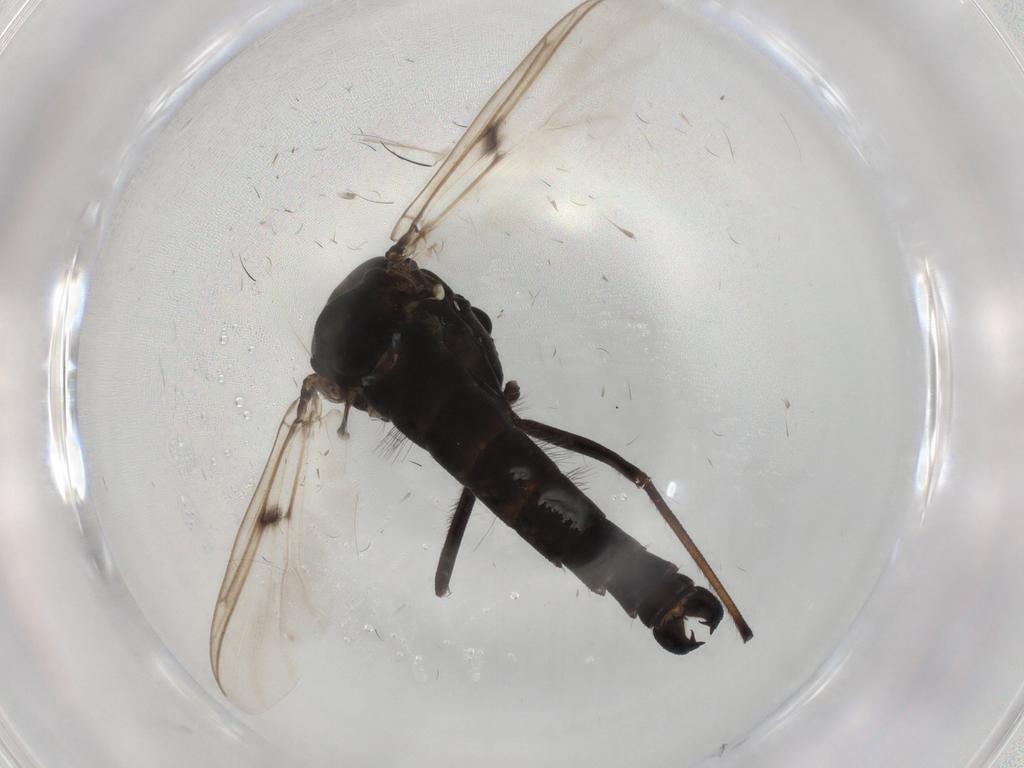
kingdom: Animalia
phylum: Arthropoda
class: Insecta
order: Diptera
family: Chironomidae
